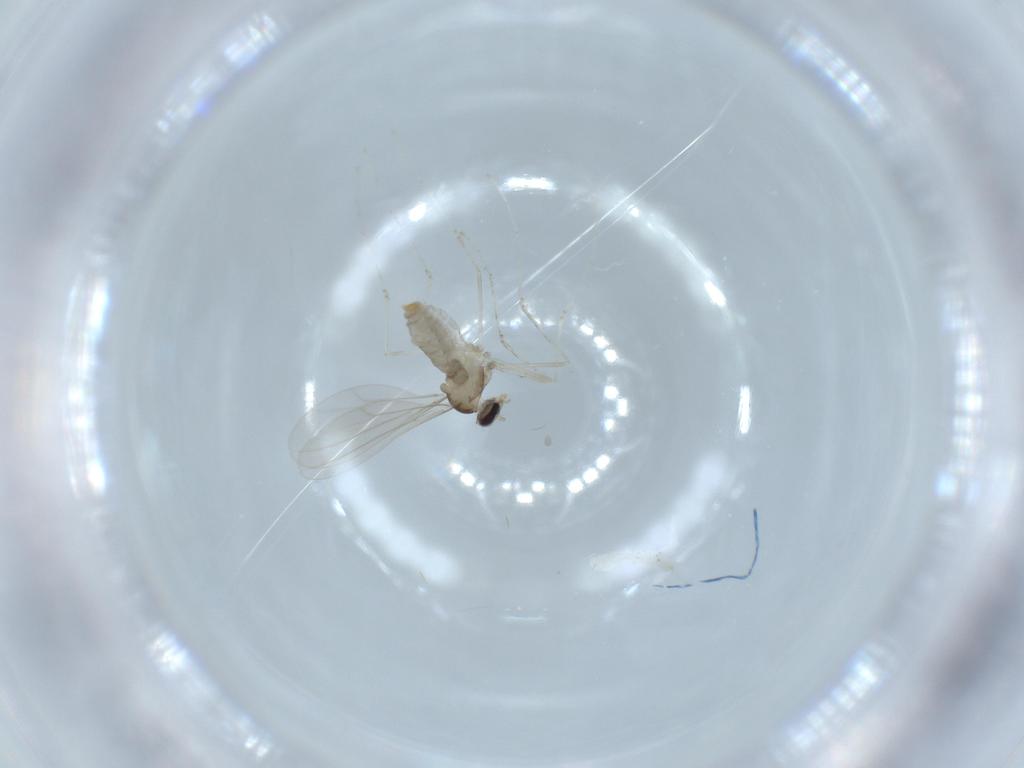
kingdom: Animalia
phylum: Arthropoda
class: Insecta
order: Diptera
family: Cecidomyiidae
